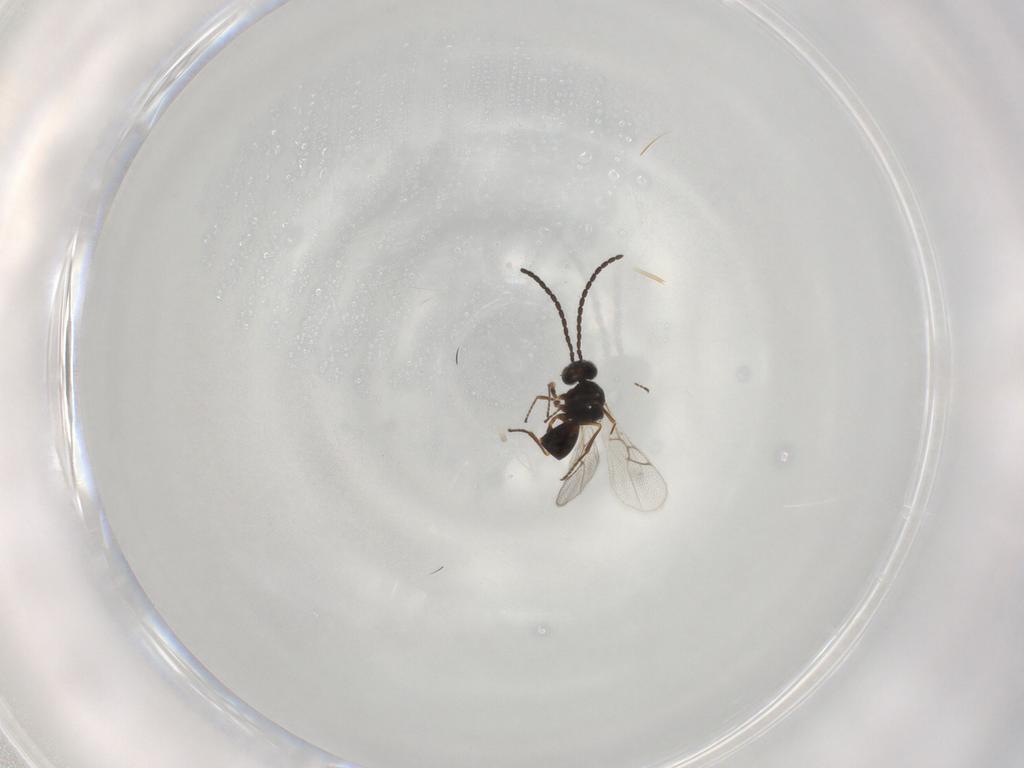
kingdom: Animalia
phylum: Arthropoda
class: Insecta
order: Hymenoptera
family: Figitidae
